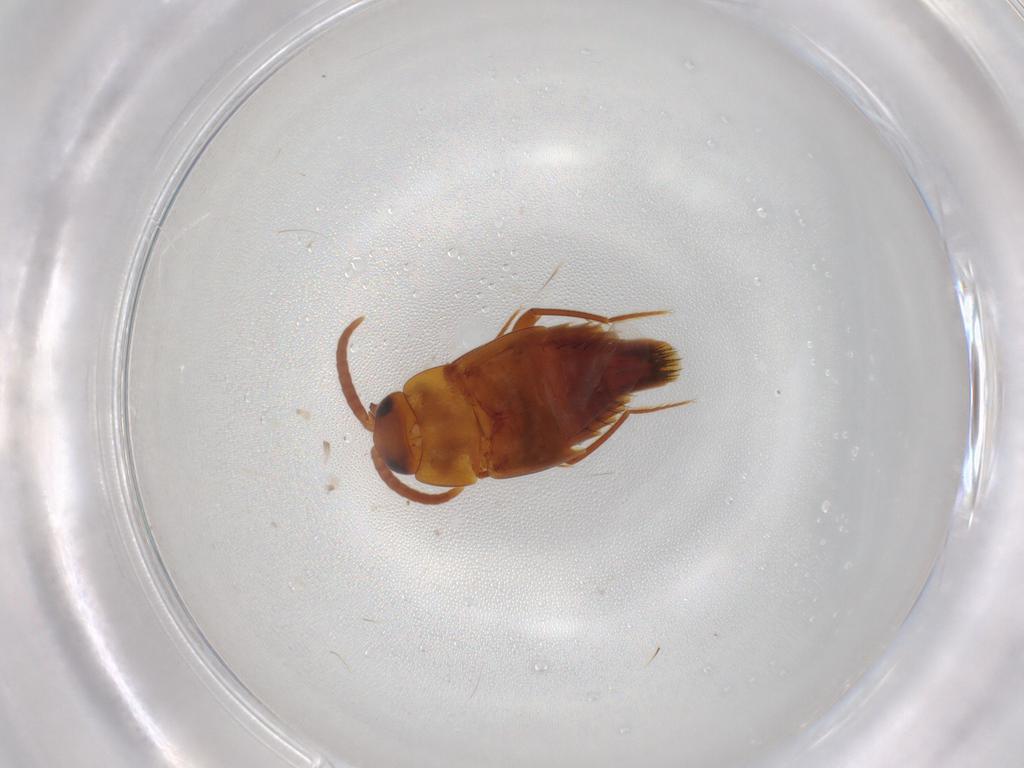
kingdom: Animalia
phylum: Arthropoda
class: Insecta
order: Coleoptera
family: Staphylinidae
